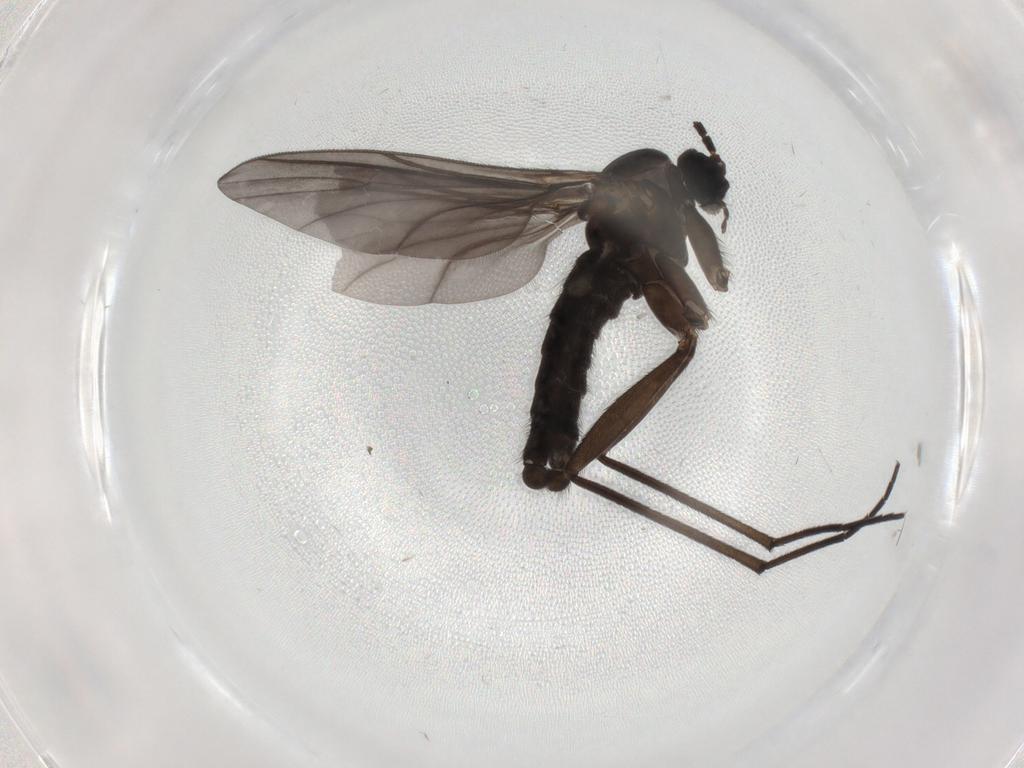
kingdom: Animalia
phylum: Arthropoda
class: Insecta
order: Diptera
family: Sciaridae
